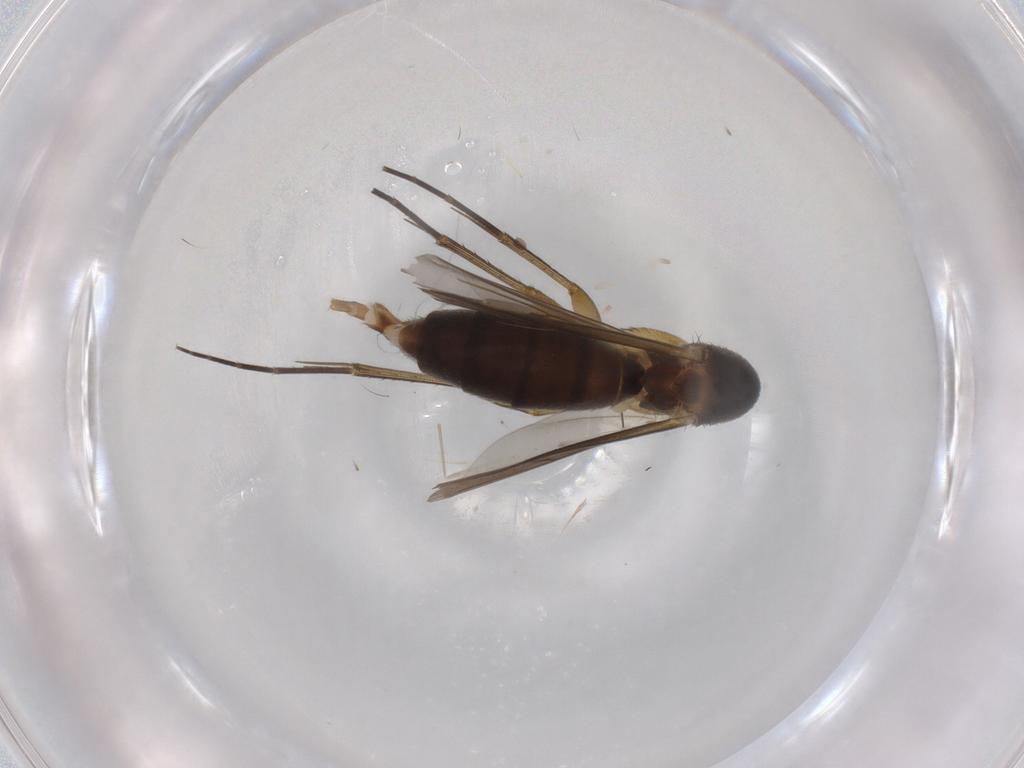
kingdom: Animalia
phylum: Arthropoda
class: Insecta
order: Diptera
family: Mycetophilidae
